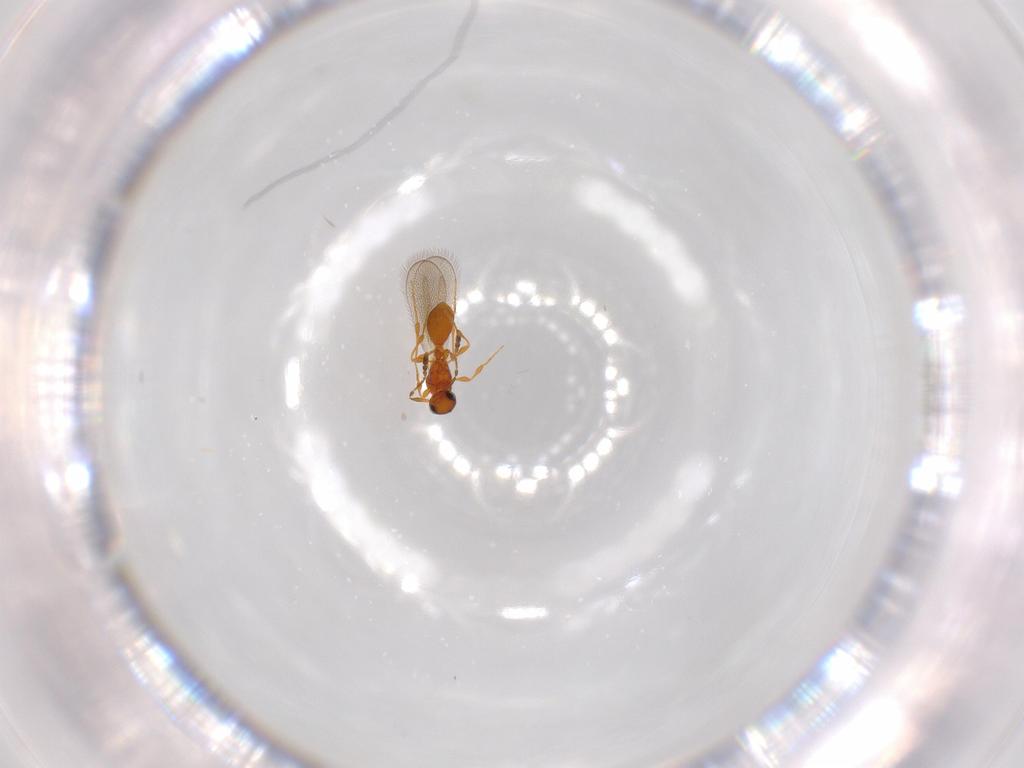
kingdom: Animalia
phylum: Arthropoda
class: Insecta
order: Hymenoptera
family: Platygastridae
